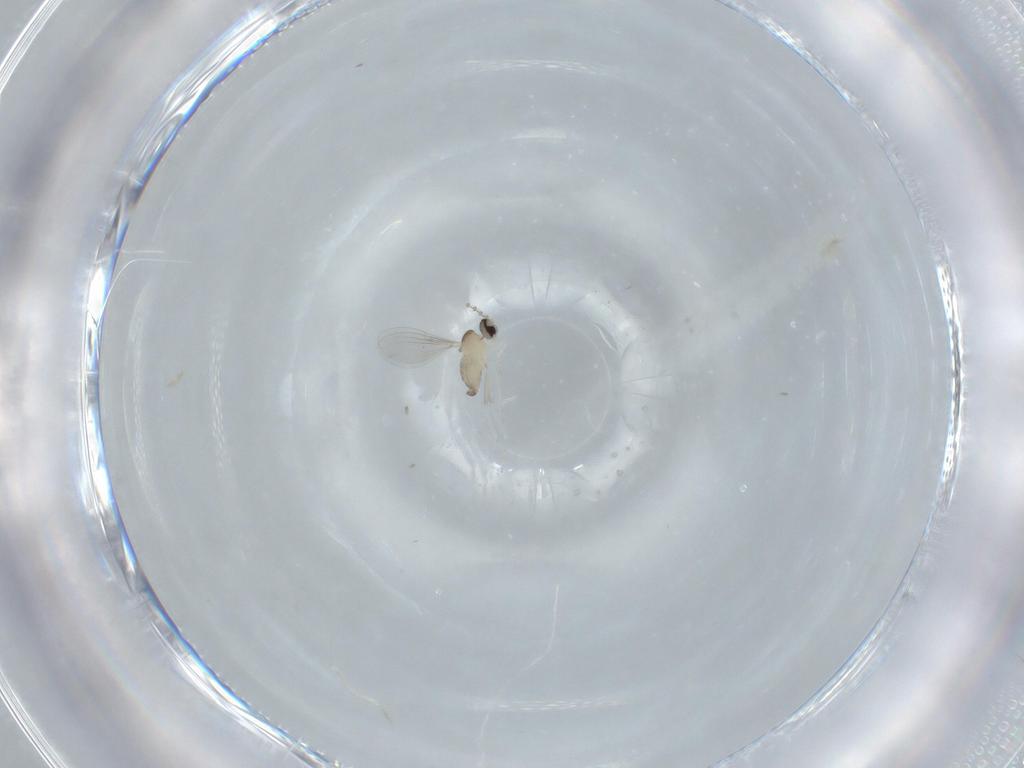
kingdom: Animalia
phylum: Arthropoda
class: Insecta
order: Diptera
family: Cecidomyiidae
